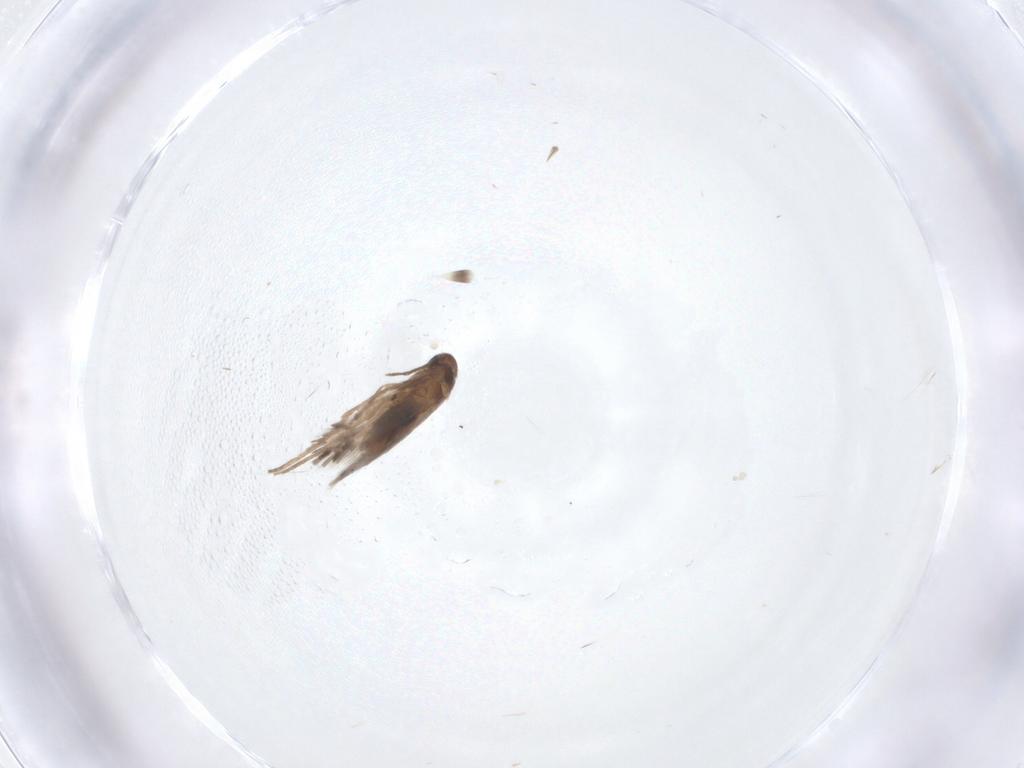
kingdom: Animalia
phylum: Arthropoda
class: Insecta
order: Lepidoptera
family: Heliozelidae
